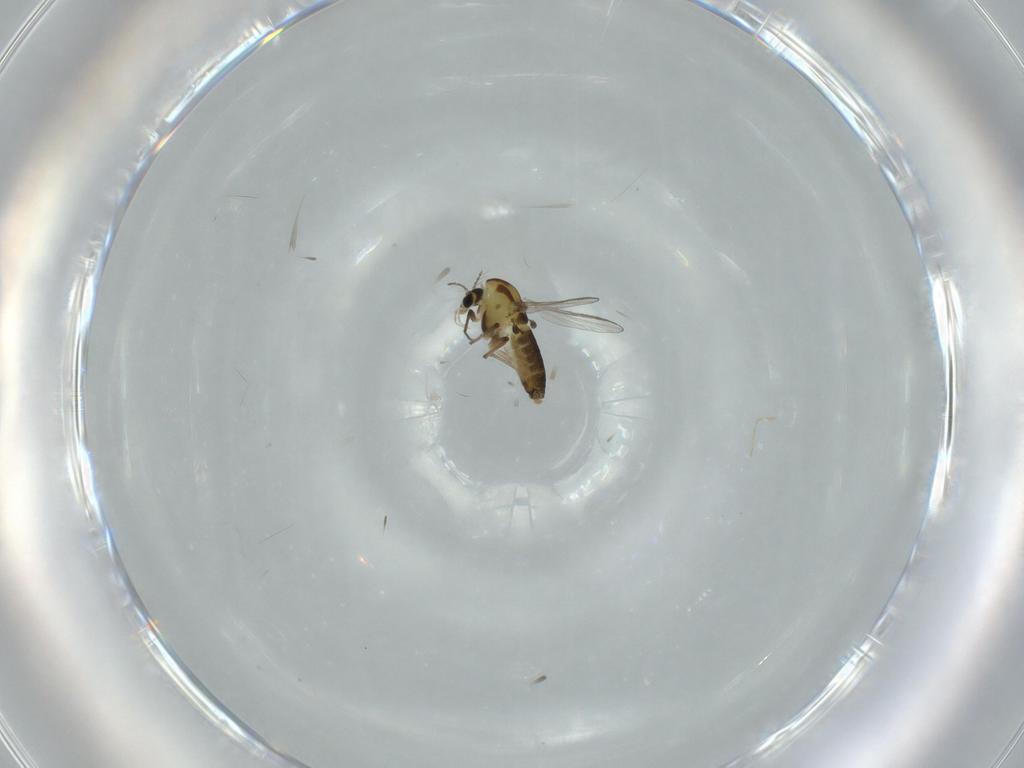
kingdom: Animalia
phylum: Arthropoda
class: Insecta
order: Diptera
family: Chironomidae
